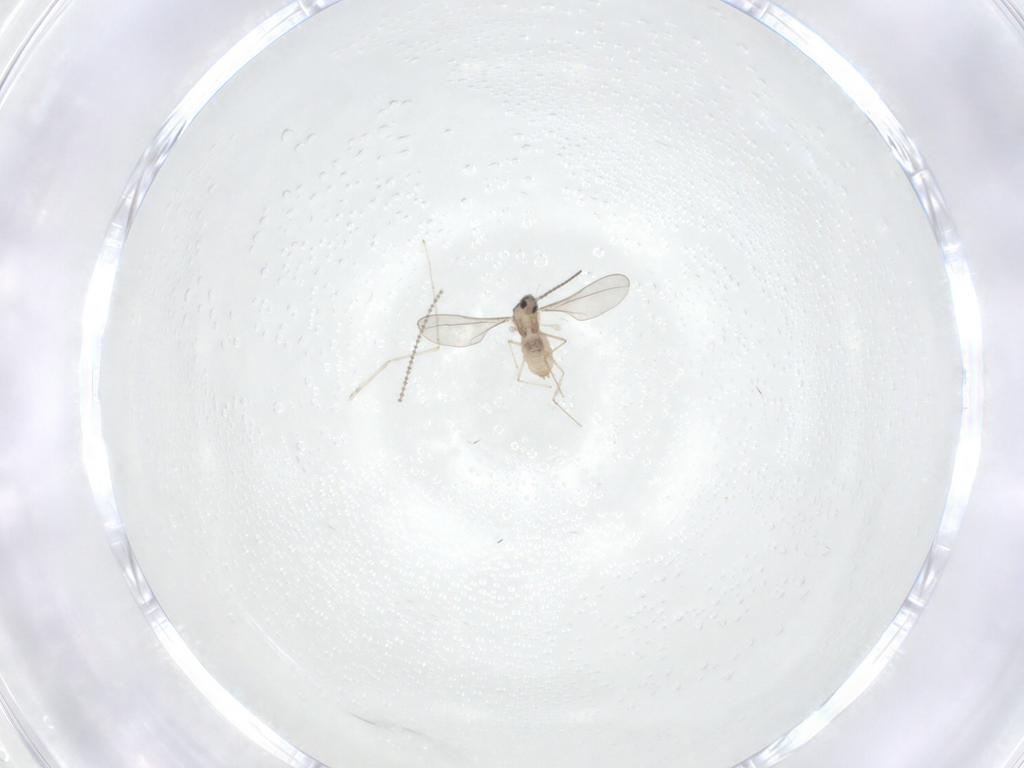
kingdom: Animalia
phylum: Arthropoda
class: Insecta
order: Diptera
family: Cecidomyiidae
